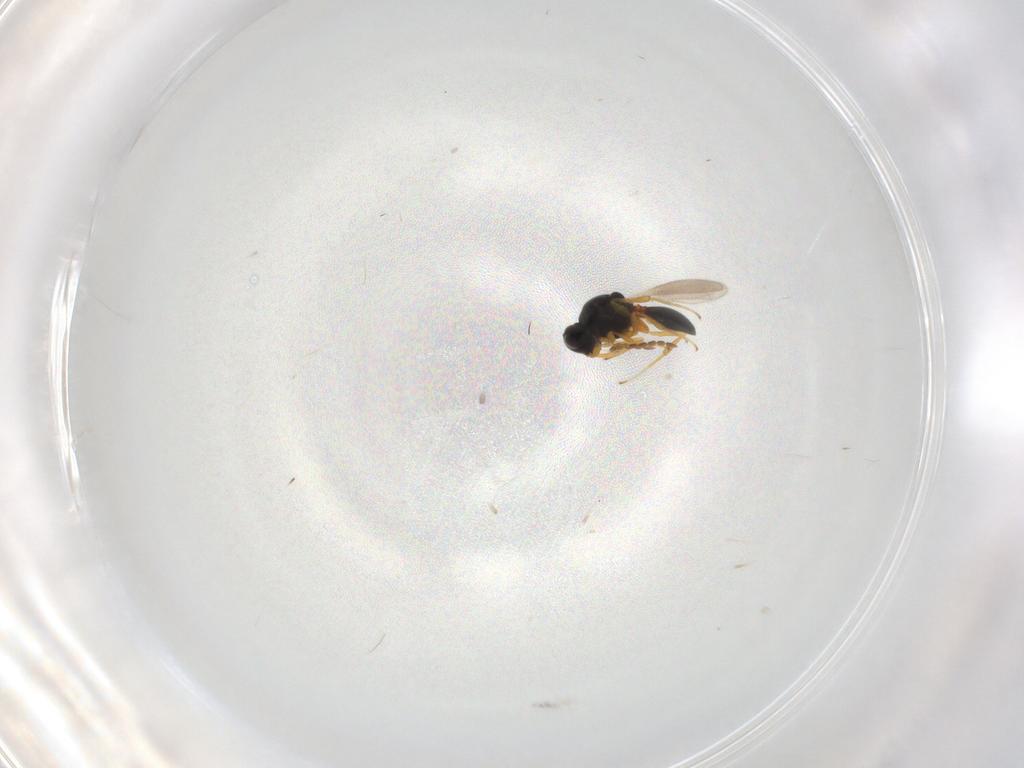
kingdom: Animalia
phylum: Arthropoda
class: Insecta
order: Hymenoptera
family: Platygastridae
